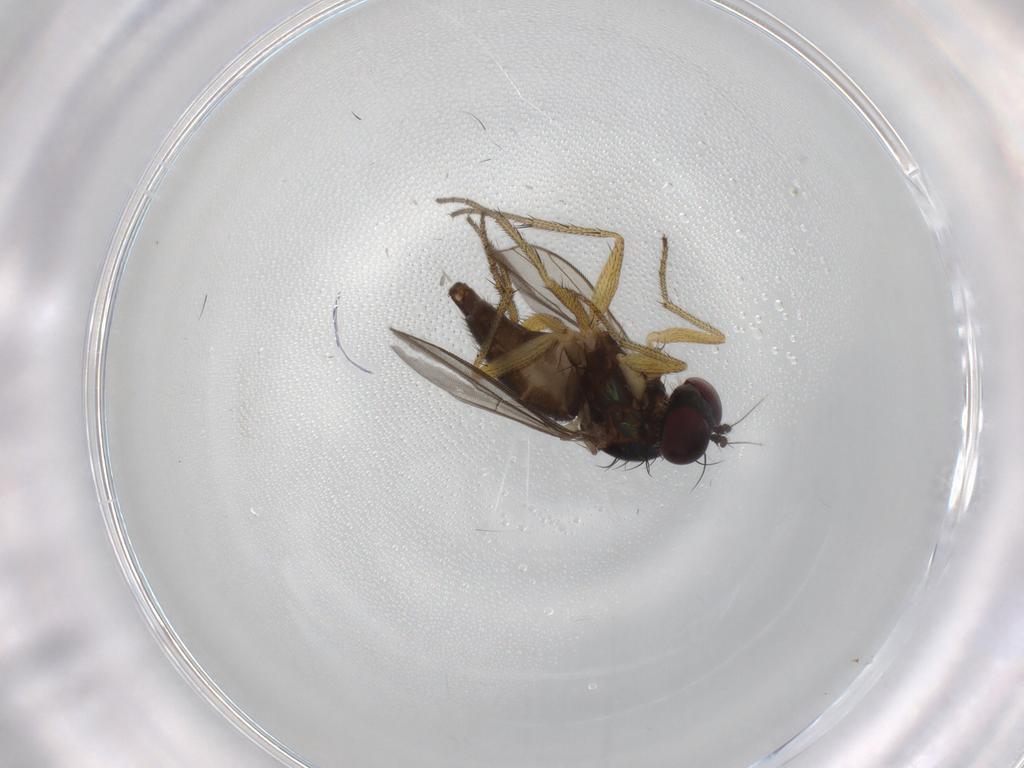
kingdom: Animalia
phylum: Arthropoda
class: Insecta
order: Diptera
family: Chironomidae
